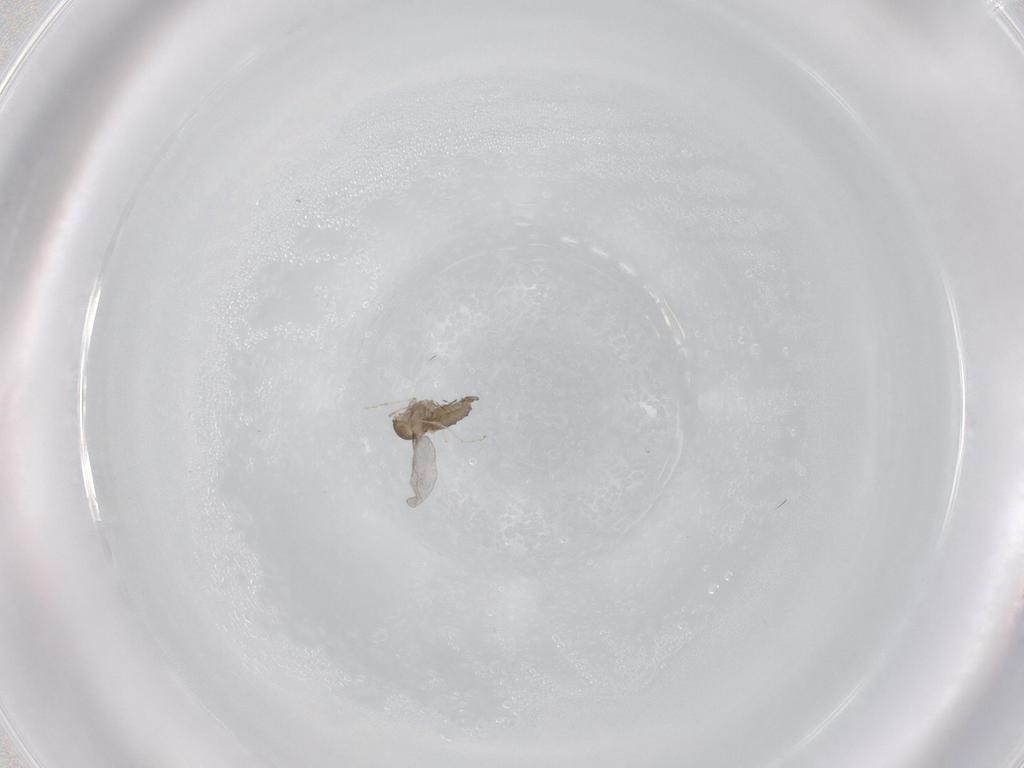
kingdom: Animalia
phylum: Arthropoda
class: Insecta
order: Diptera
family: Cecidomyiidae
